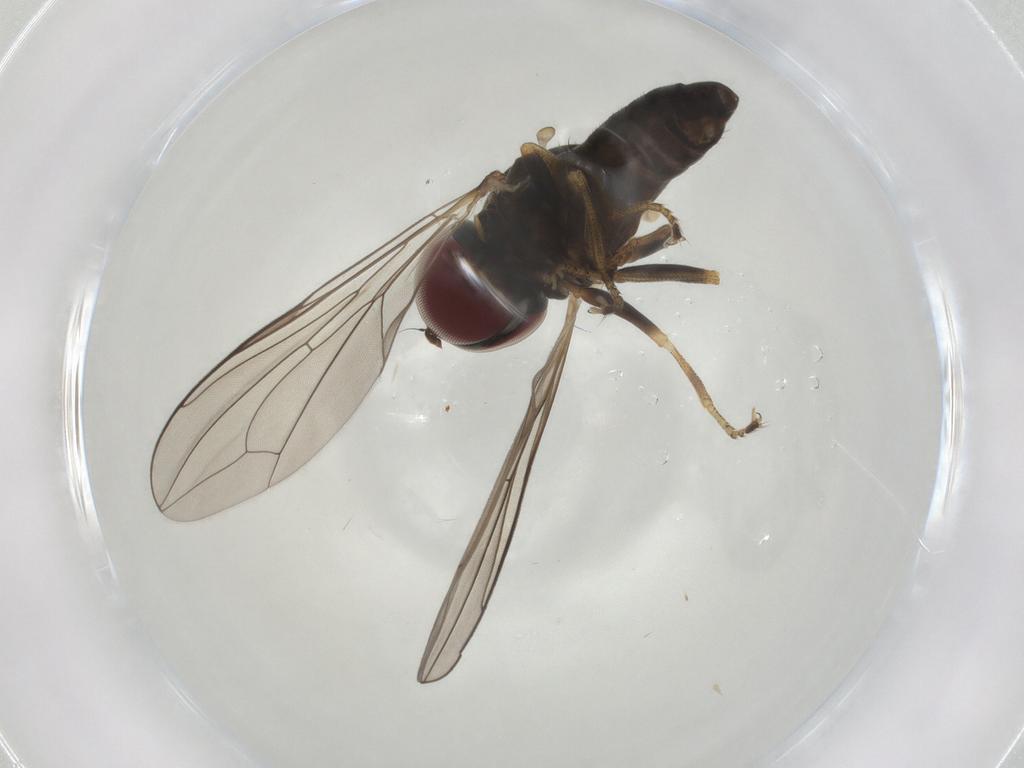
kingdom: Animalia
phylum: Arthropoda
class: Insecta
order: Diptera
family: Pipunculidae
